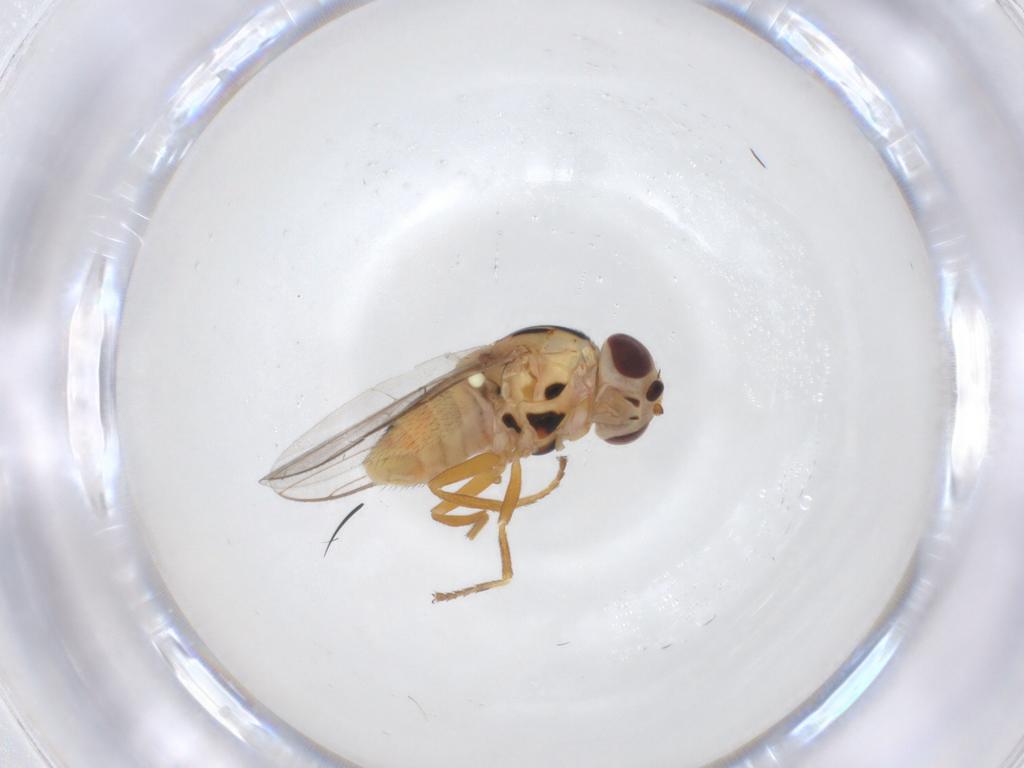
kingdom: Animalia
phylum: Arthropoda
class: Insecta
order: Diptera
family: Chloropidae
